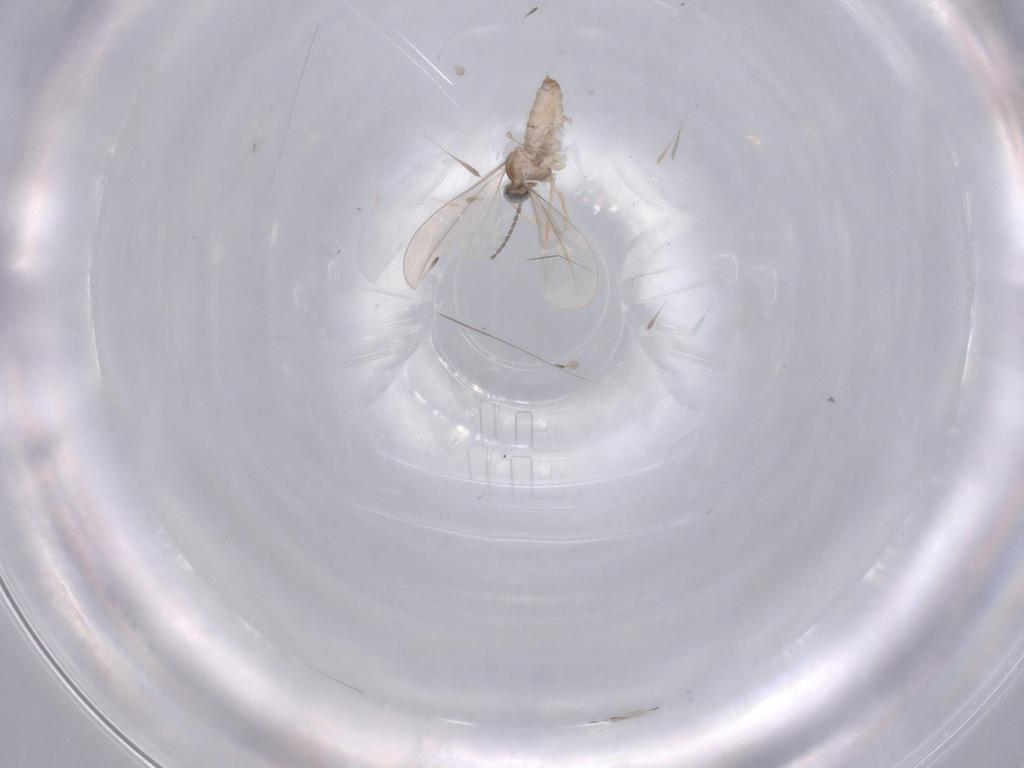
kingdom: Animalia
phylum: Arthropoda
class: Insecta
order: Diptera
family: Cecidomyiidae
